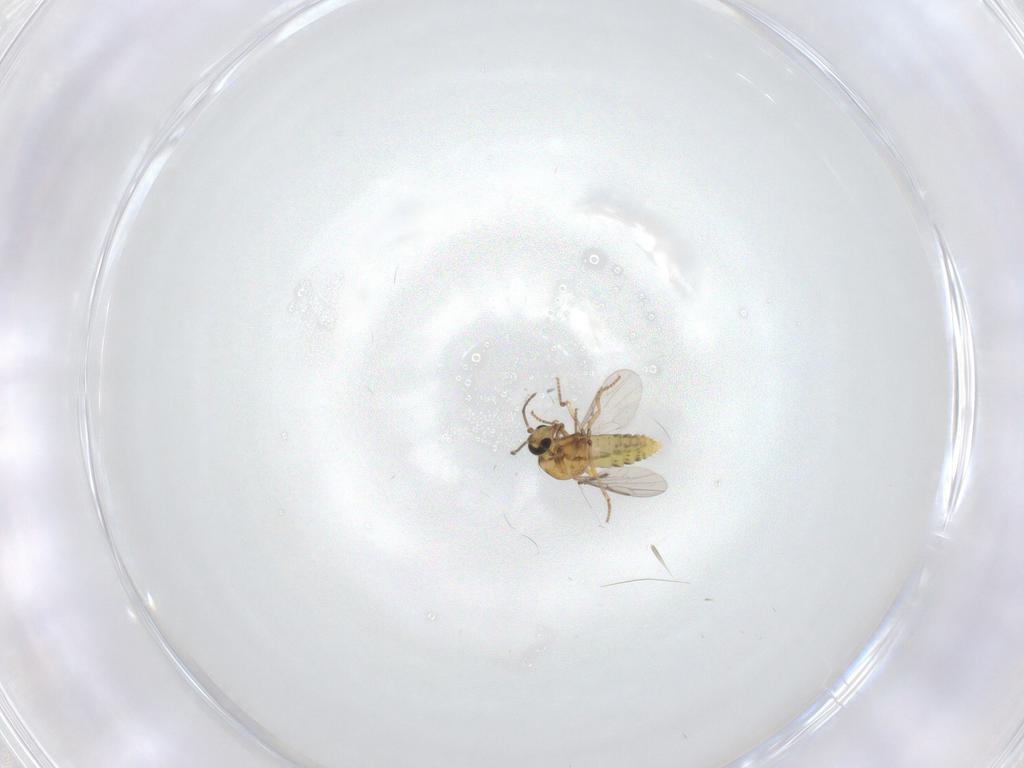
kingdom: Animalia
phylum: Arthropoda
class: Insecta
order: Diptera
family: Ceratopogonidae
